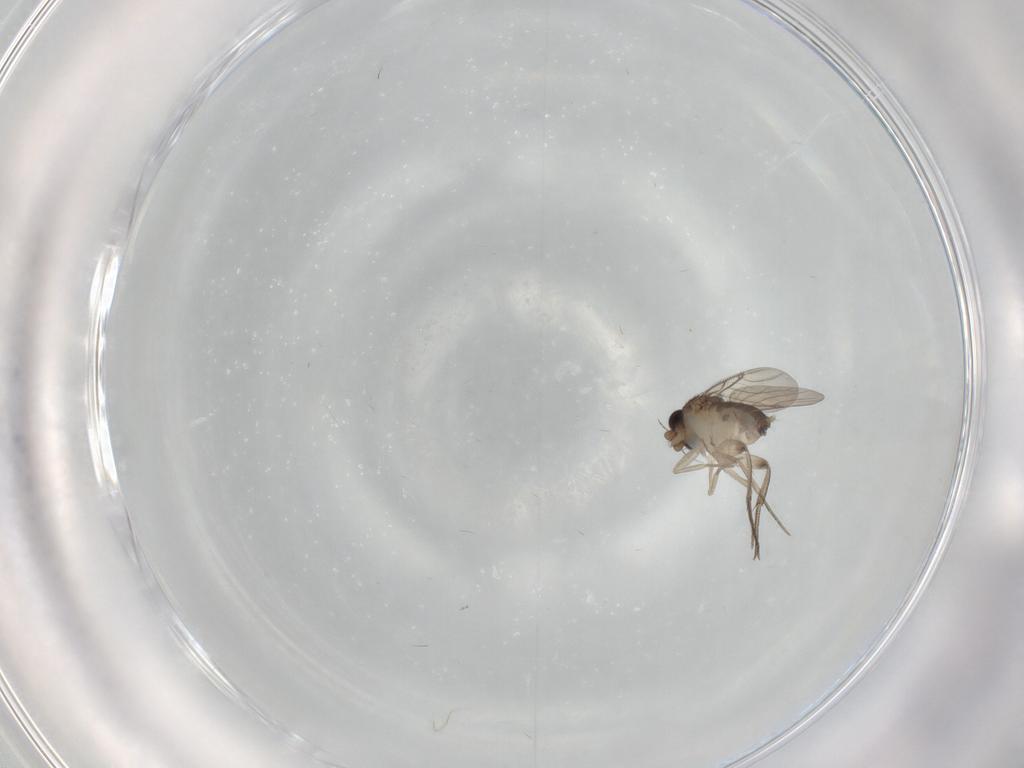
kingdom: Animalia
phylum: Arthropoda
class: Insecta
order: Diptera
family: Phoridae
